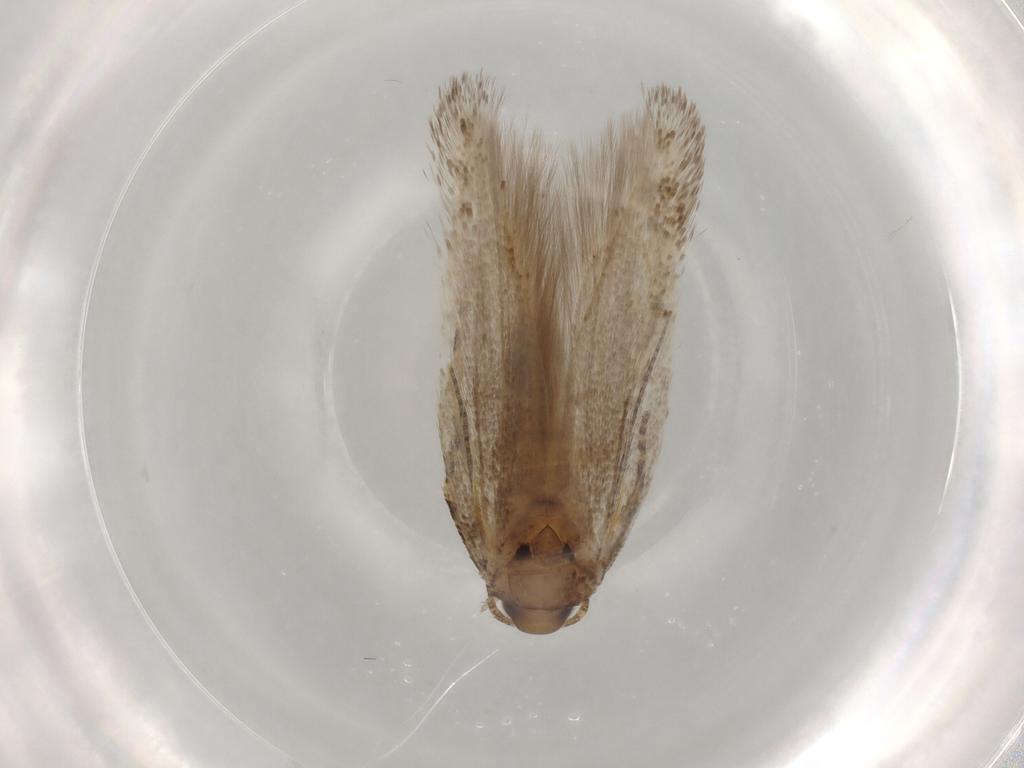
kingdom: Animalia
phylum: Arthropoda
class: Insecta
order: Lepidoptera
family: Gelechiidae
